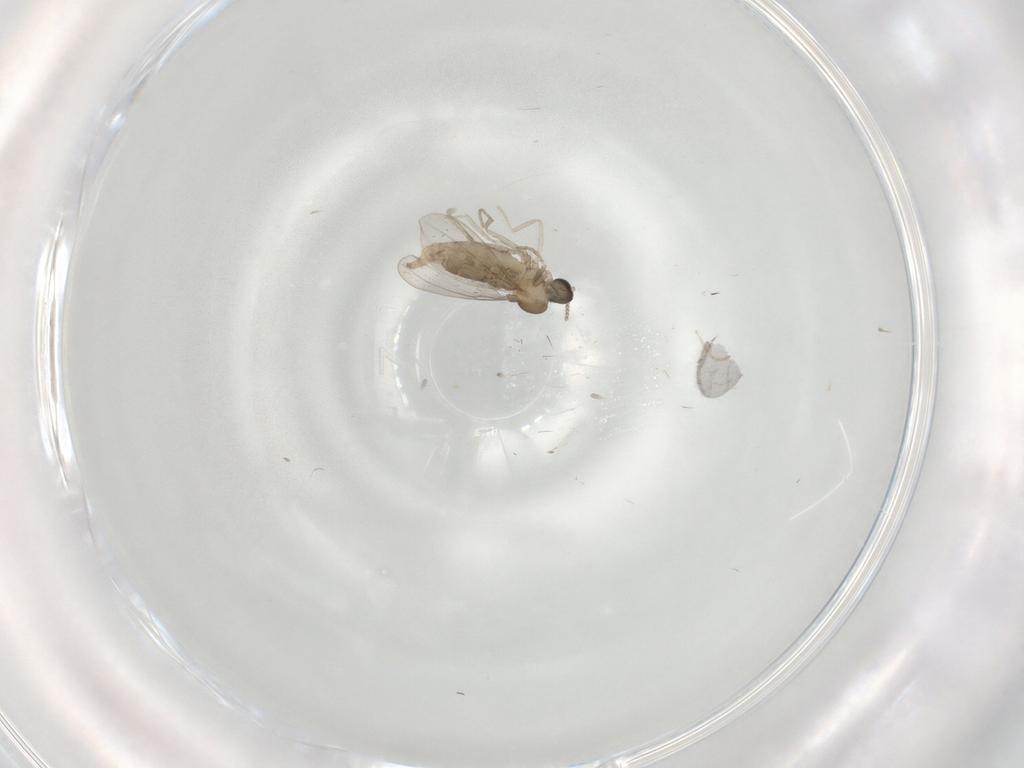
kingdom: Animalia
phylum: Arthropoda
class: Insecta
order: Diptera
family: Sciaridae
